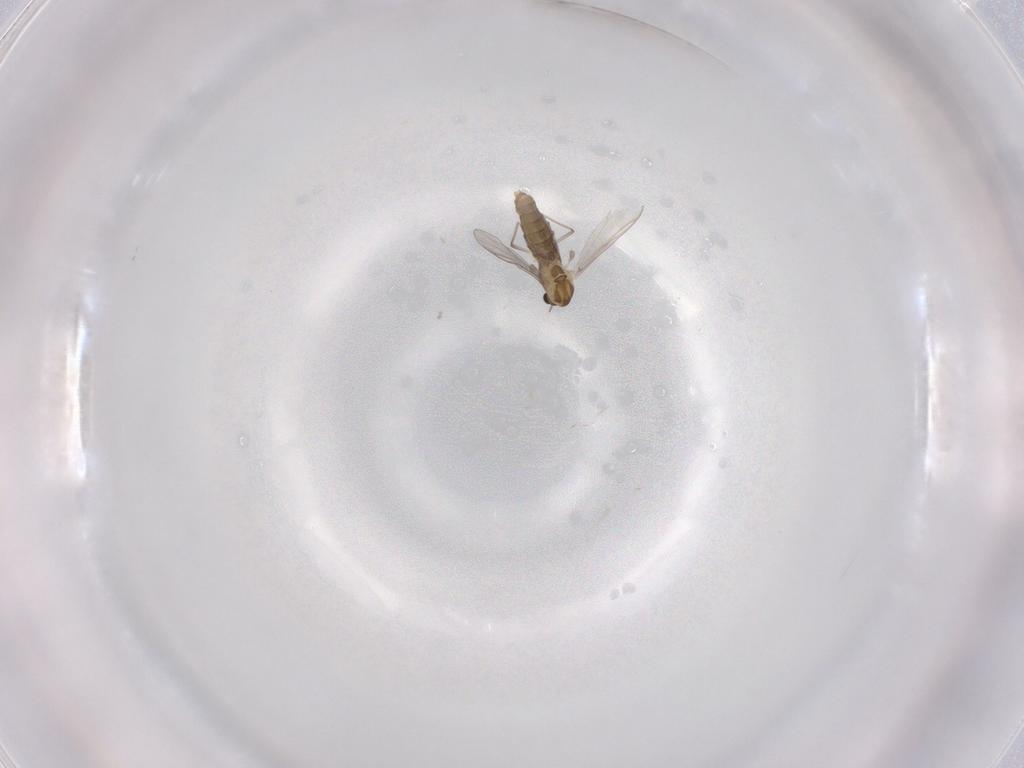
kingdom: Animalia
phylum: Arthropoda
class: Insecta
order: Diptera
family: Chironomidae
